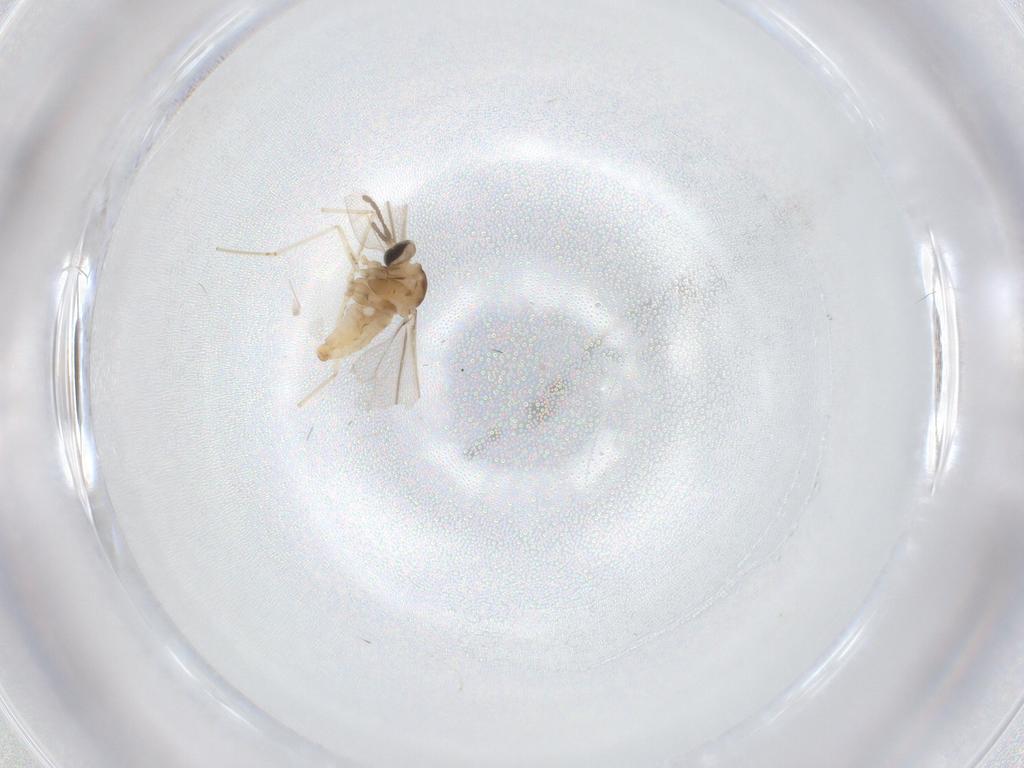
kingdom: Animalia
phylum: Arthropoda
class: Insecta
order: Diptera
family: Cecidomyiidae
